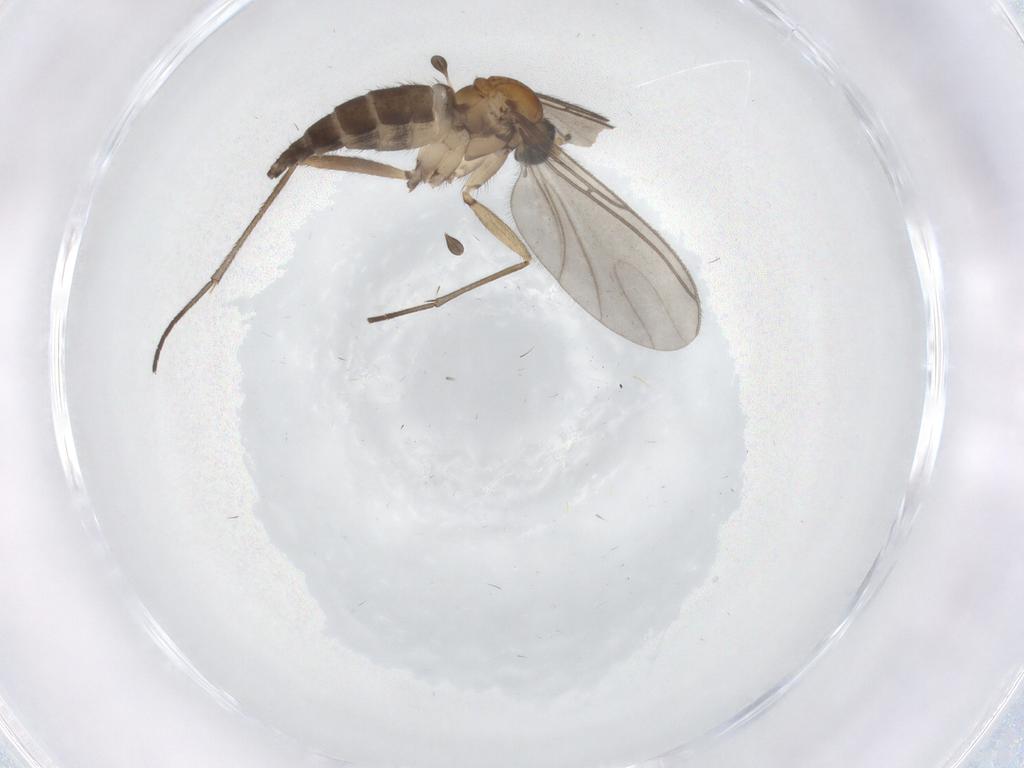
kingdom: Animalia
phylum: Arthropoda
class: Insecta
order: Diptera
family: Sciaridae
